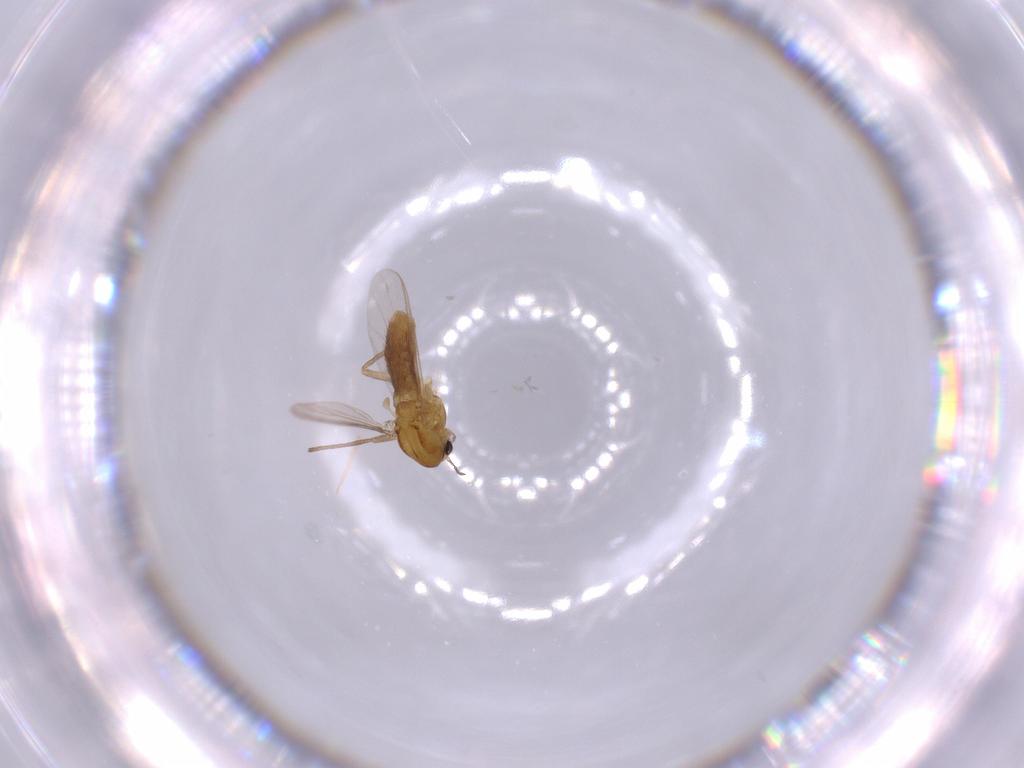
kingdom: Animalia
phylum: Arthropoda
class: Insecta
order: Diptera
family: Chironomidae
